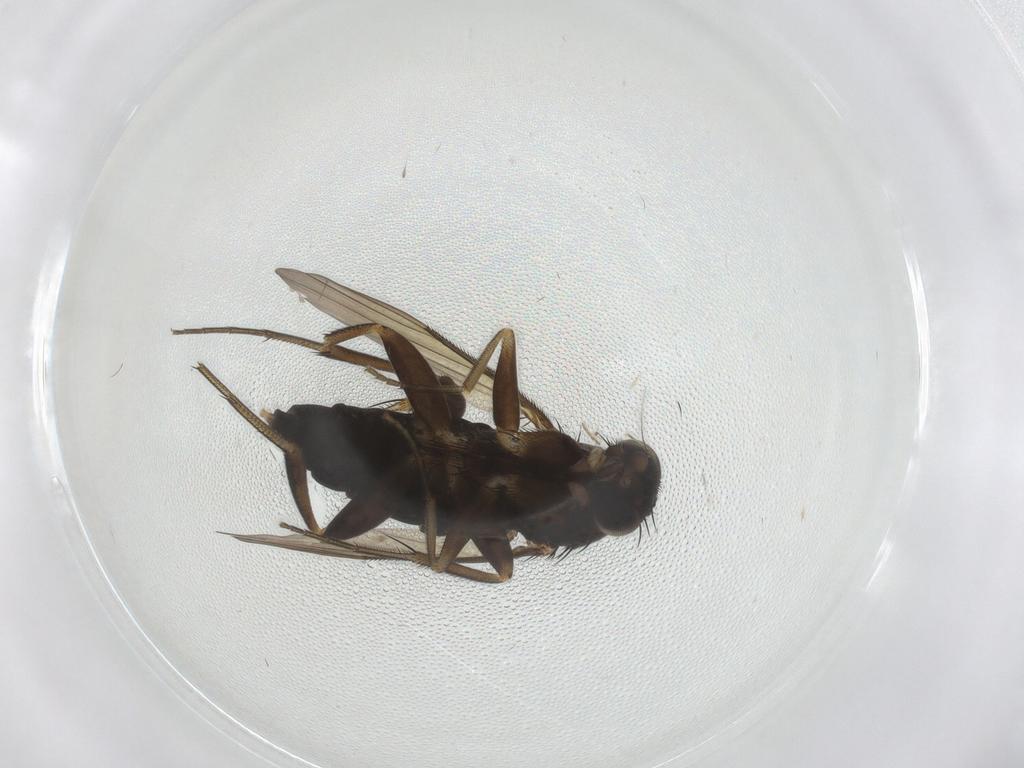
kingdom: Animalia
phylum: Arthropoda
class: Insecta
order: Diptera
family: Phoridae
